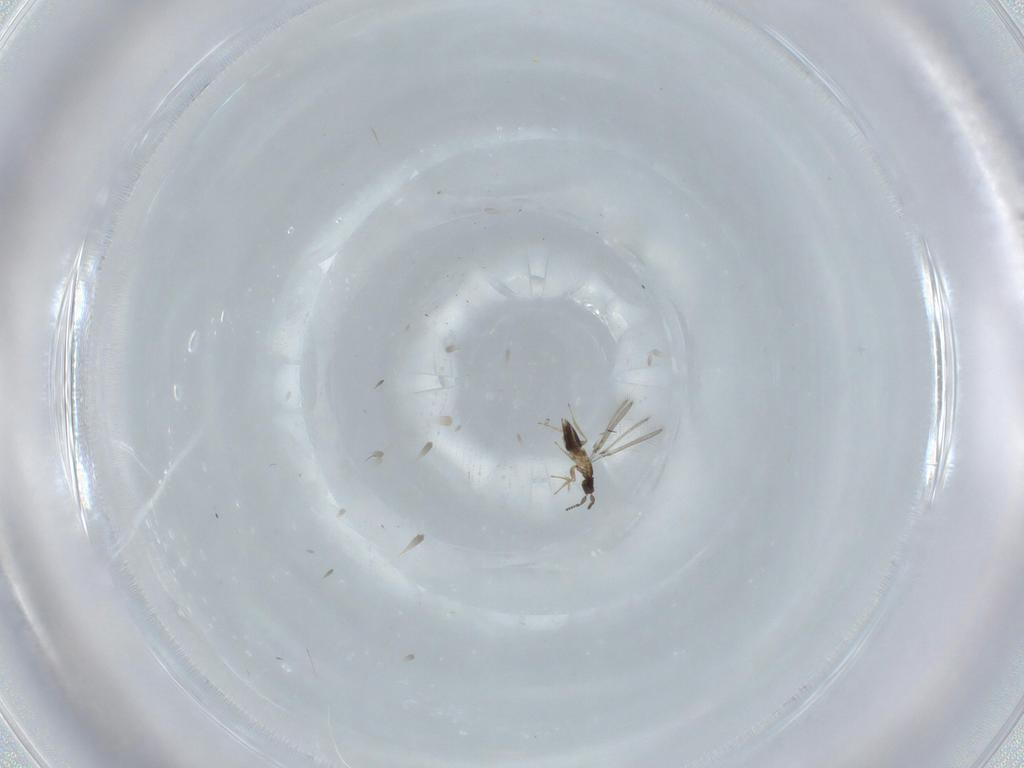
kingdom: Animalia
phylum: Arthropoda
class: Insecta
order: Hymenoptera
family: Mymaridae
